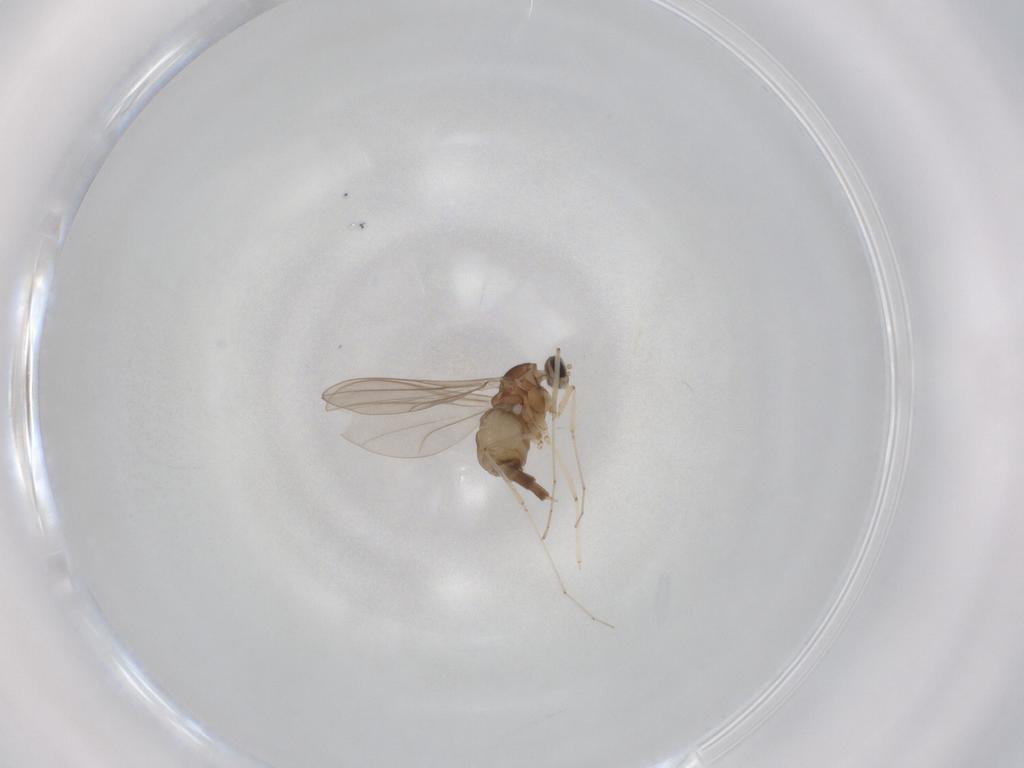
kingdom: Animalia
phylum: Arthropoda
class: Insecta
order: Diptera
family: Cecidomyiidae
